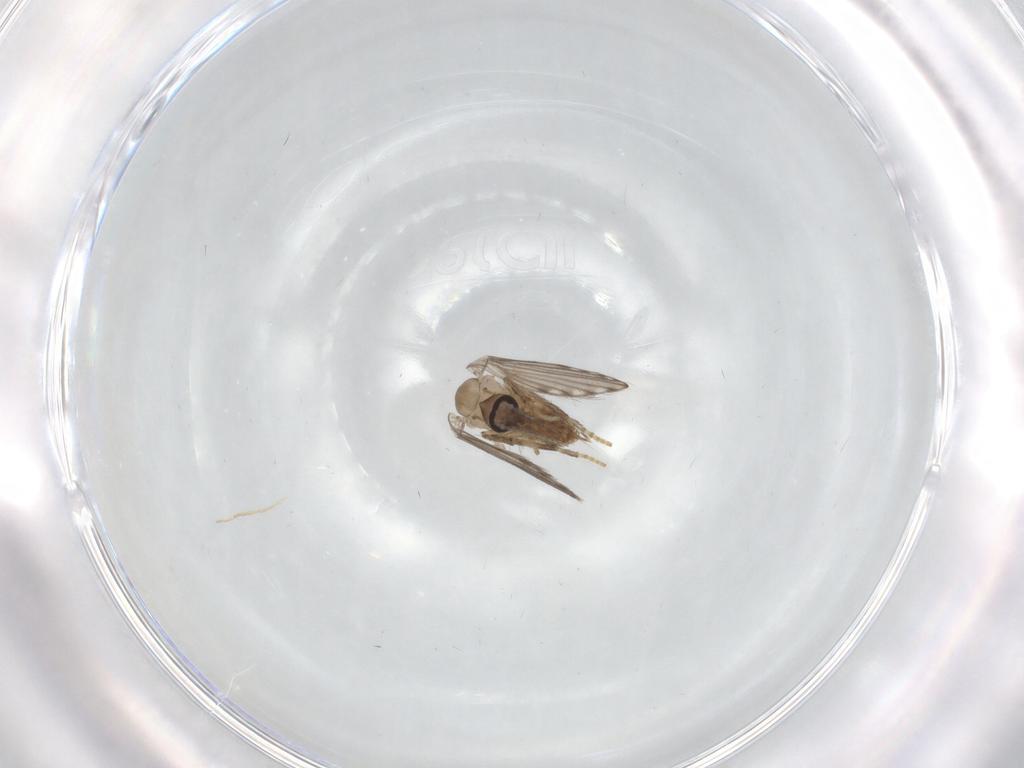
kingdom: Animalia
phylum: Arthropoda
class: Insecta
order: Diptera
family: Psychodidae
